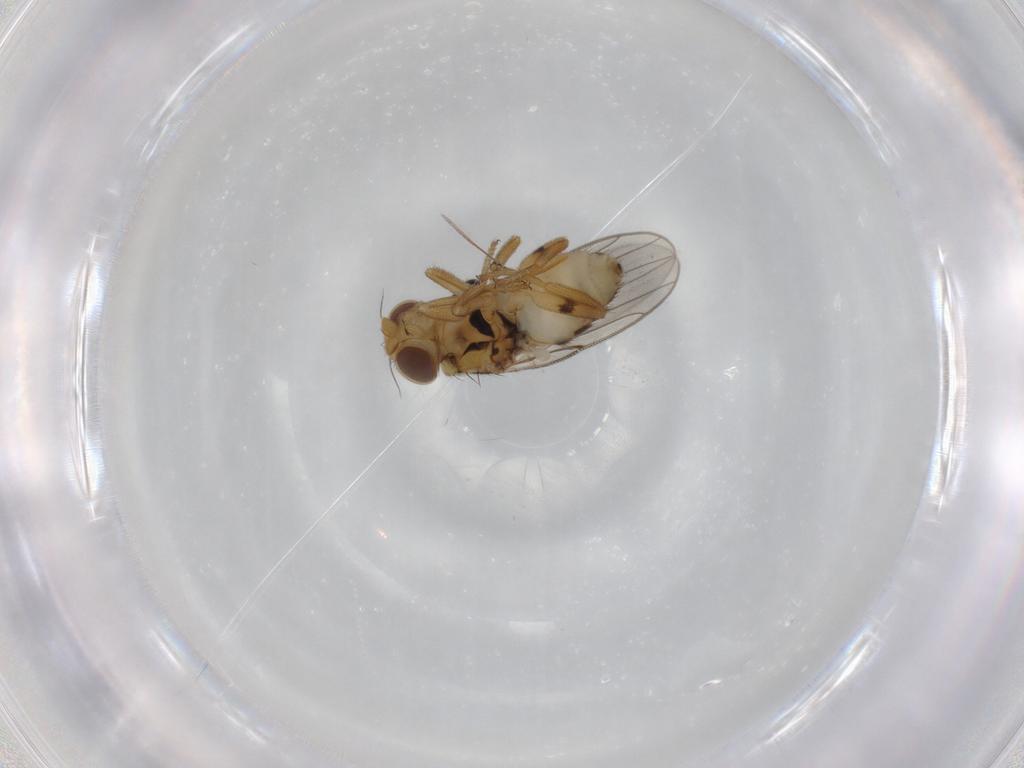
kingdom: Animalia
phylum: Arthropoda
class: Insecta
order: Diptera
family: Chloropidae
